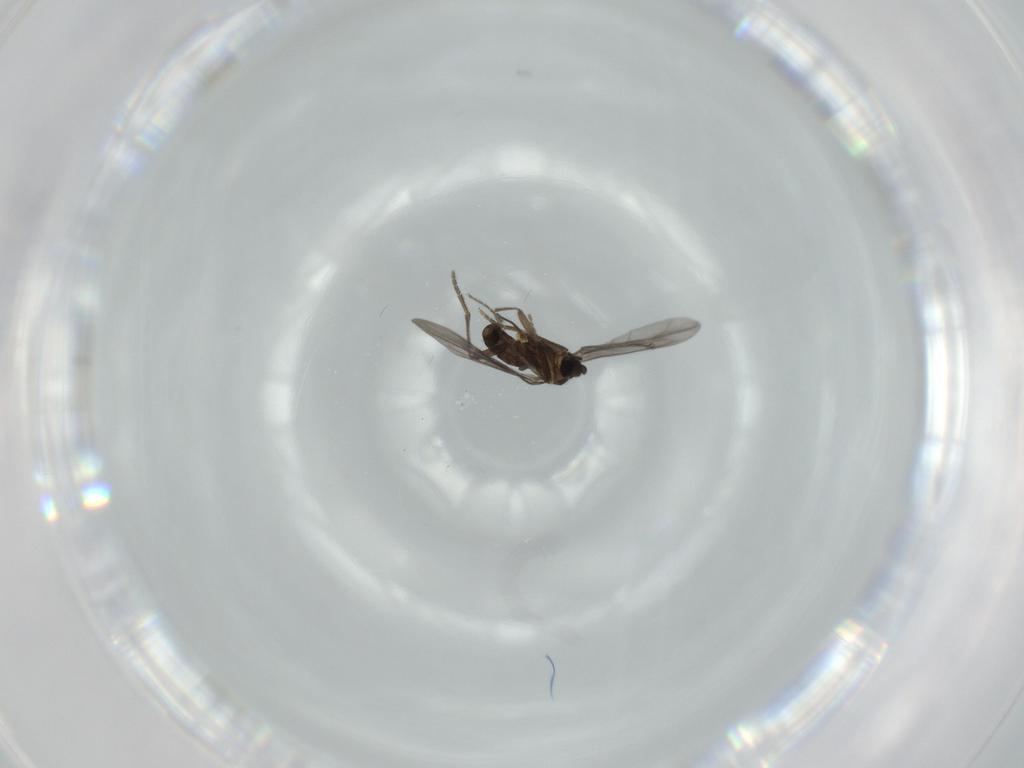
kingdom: Animalia
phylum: Arthropoda
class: Insecta
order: Diptera
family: Phoridae
